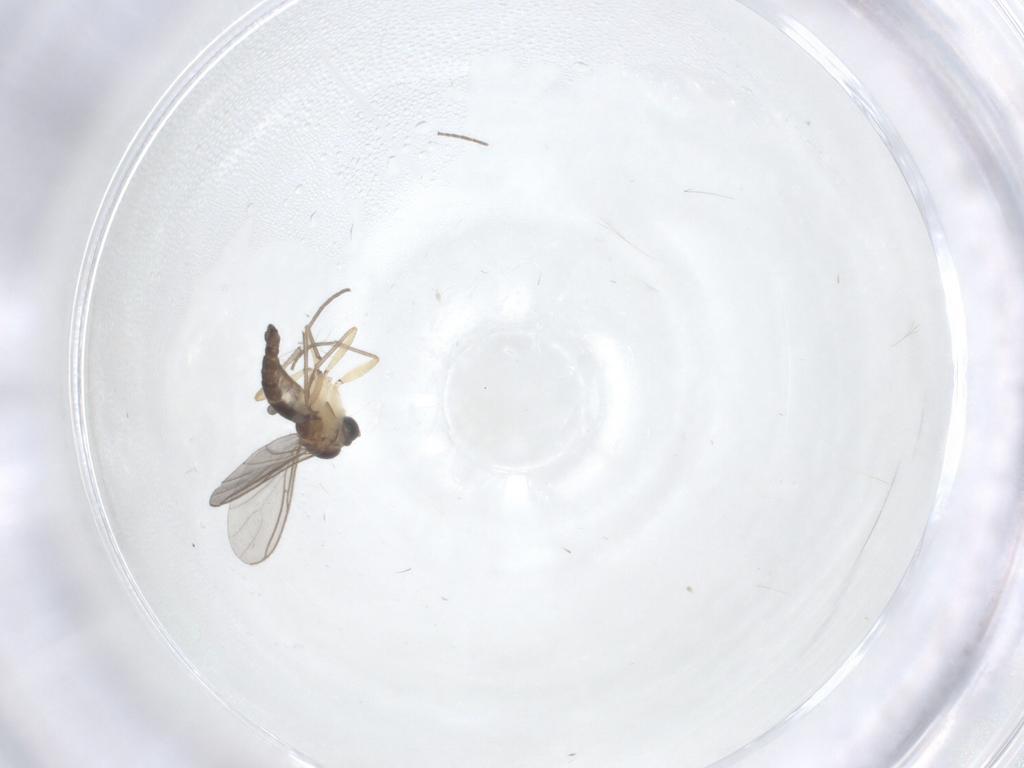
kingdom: Animalia
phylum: Arthropoda
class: Insecta
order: Diptera
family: Sciaridae
